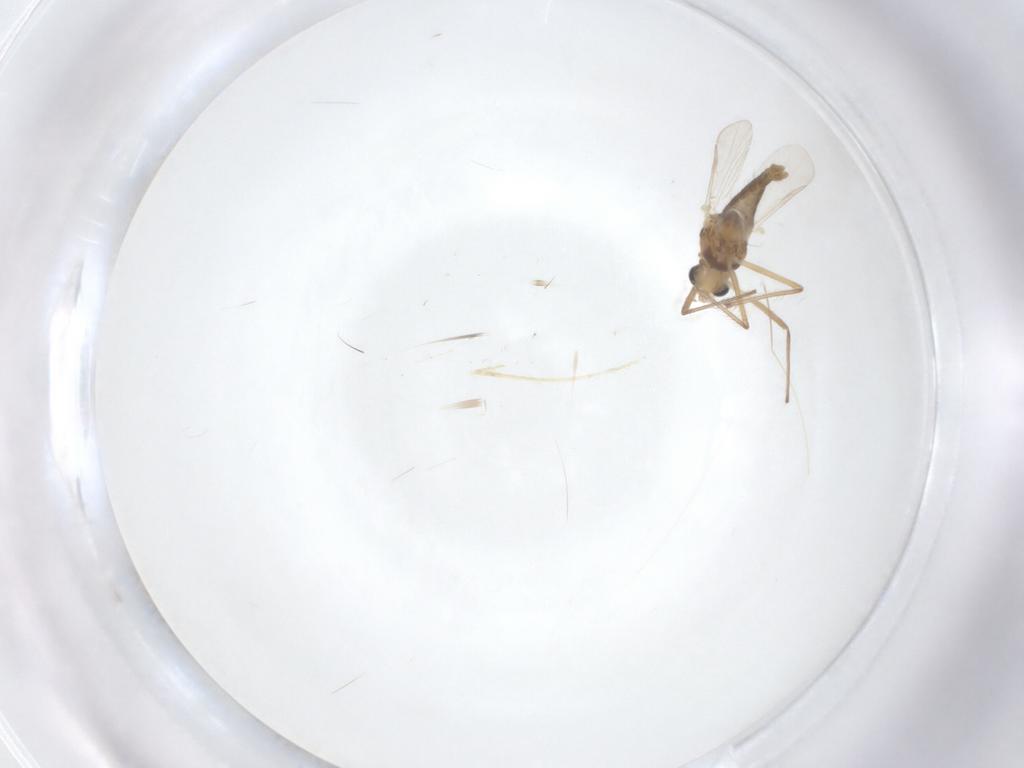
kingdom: Animalia
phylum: Arthropoda
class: Insecta
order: Diptera
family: Chironomidae
